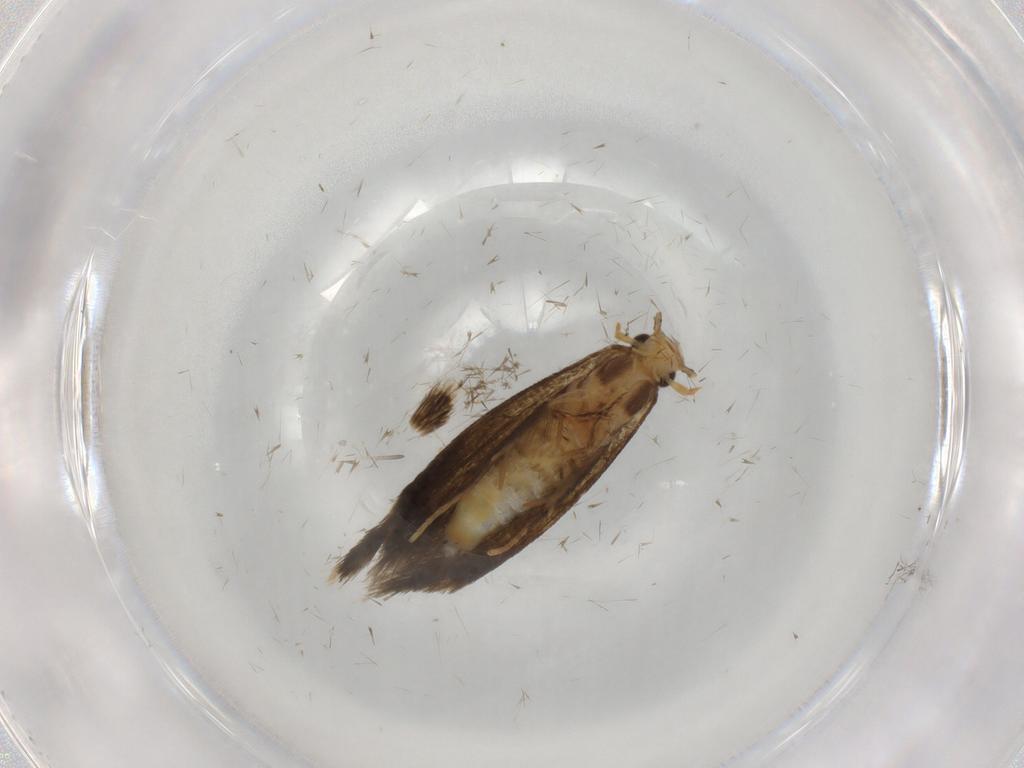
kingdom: Animalia
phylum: Arthropoda
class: Insecta
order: Lepidoptera
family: Tineidae
